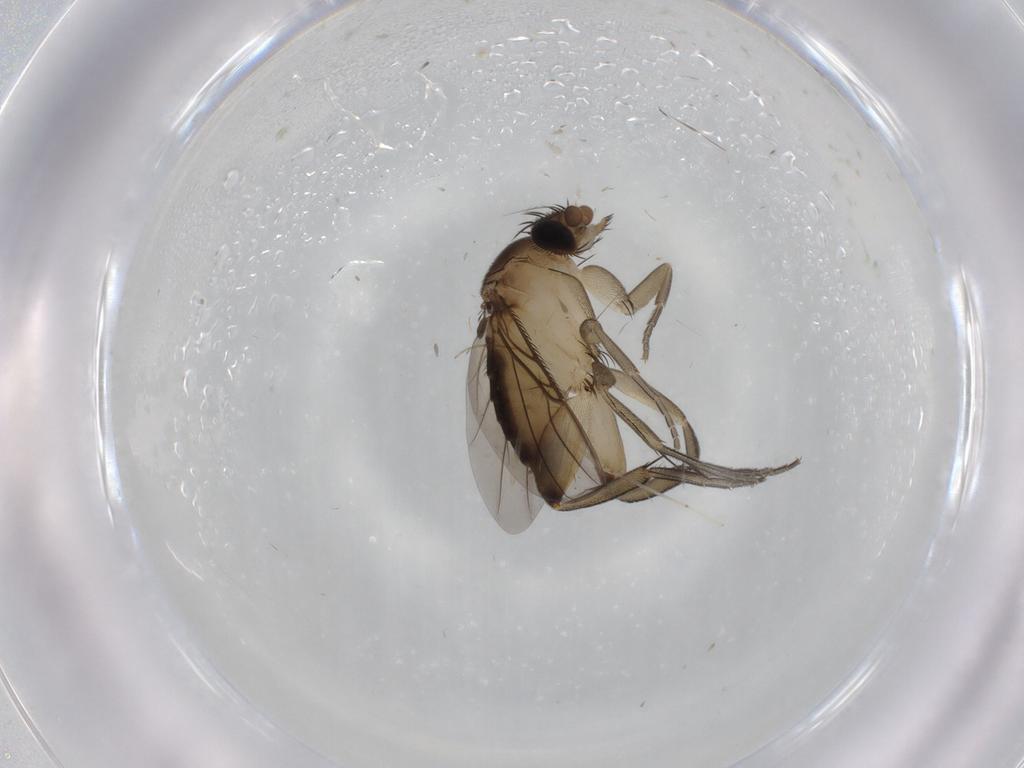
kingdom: Animalia
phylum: Arthropoda
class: Insecta
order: Diptera
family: Phoridae
